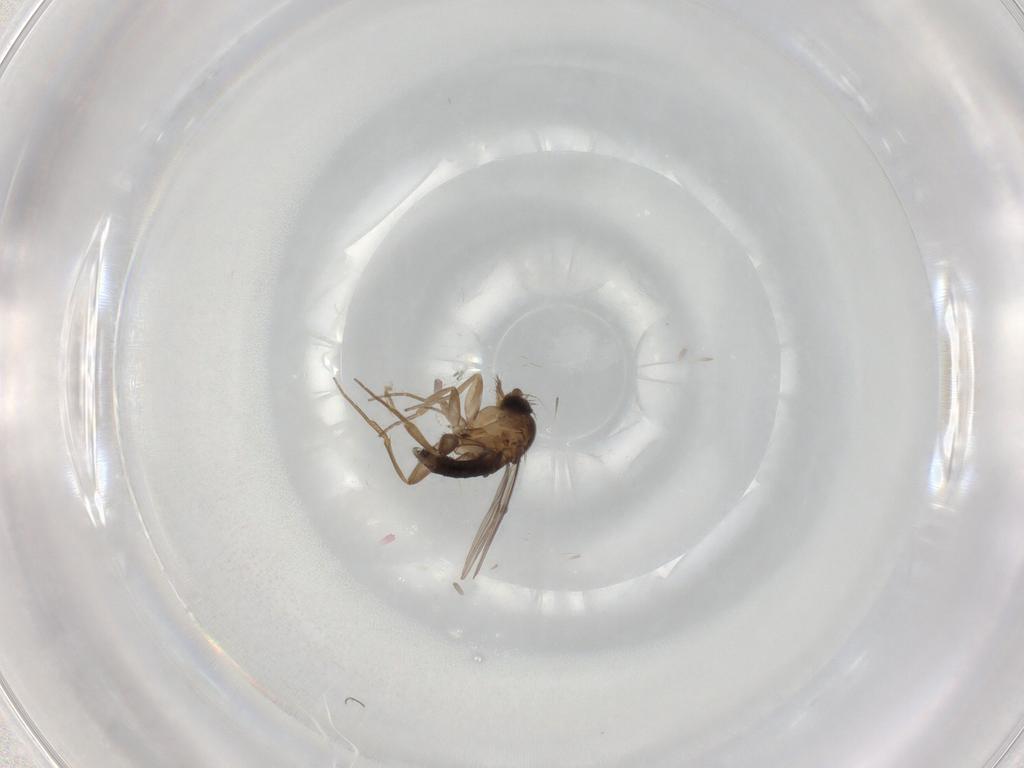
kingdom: Animalia
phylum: Arthropoda
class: Insecta
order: Diptera
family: Phoridae
